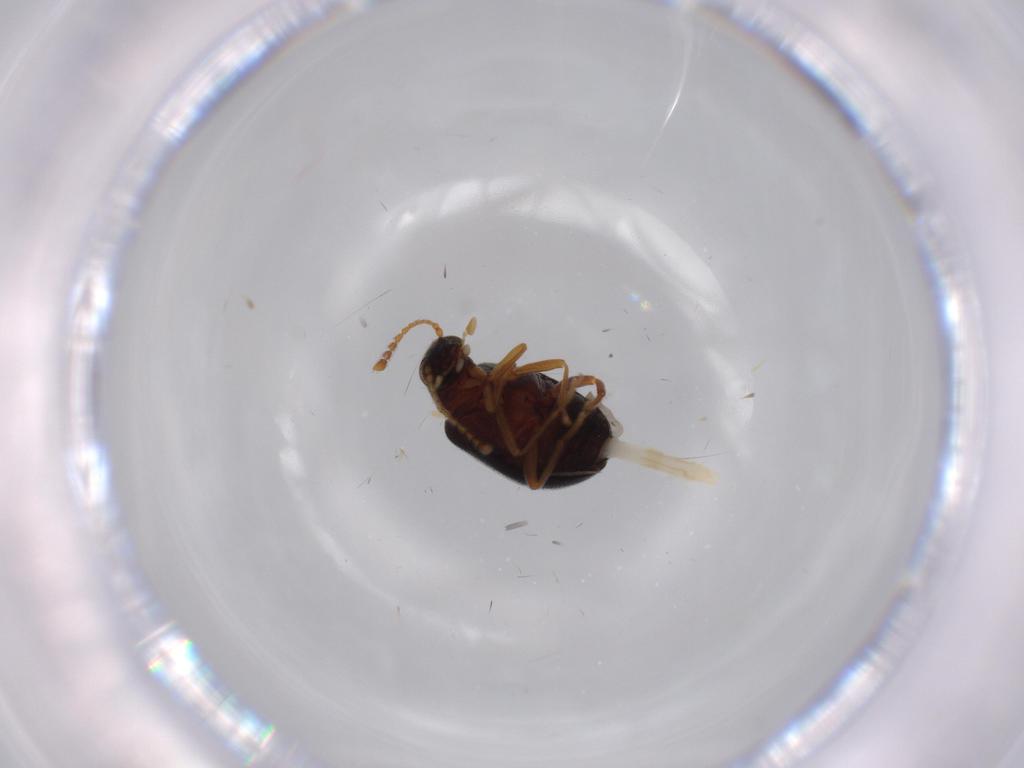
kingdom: Animalia
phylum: Arthropoda
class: Insecta
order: Coleoptera
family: Aderidae
